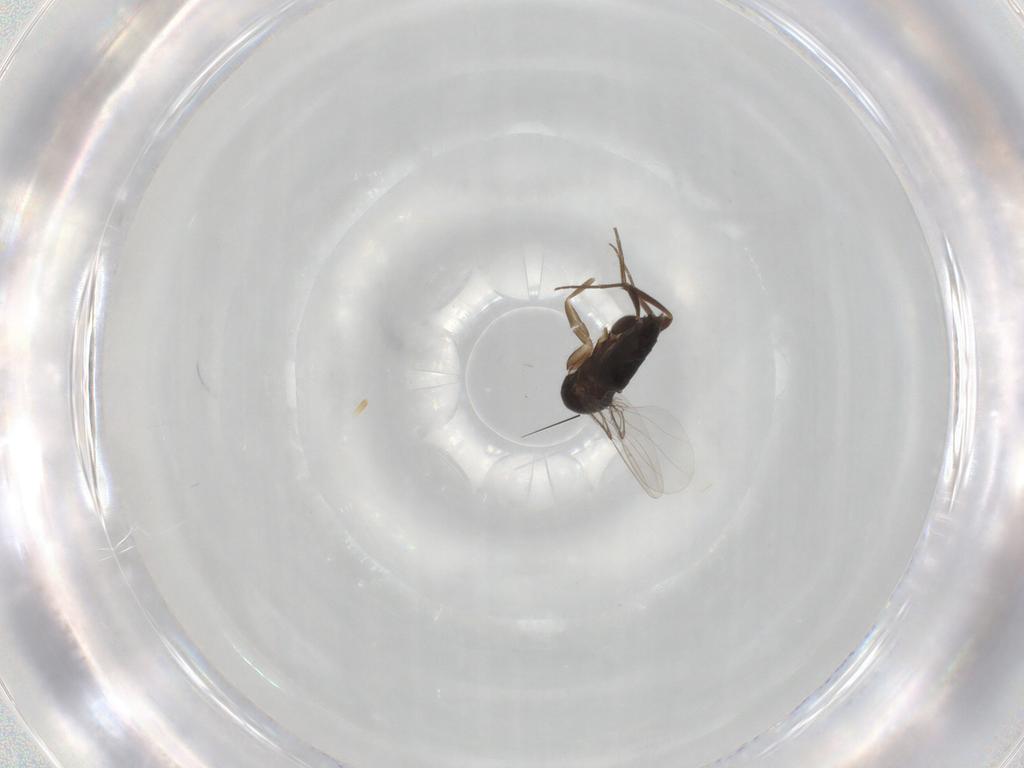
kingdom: Animalia
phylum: Arthropoda
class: Insecta
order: Diptera
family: Phoridae
